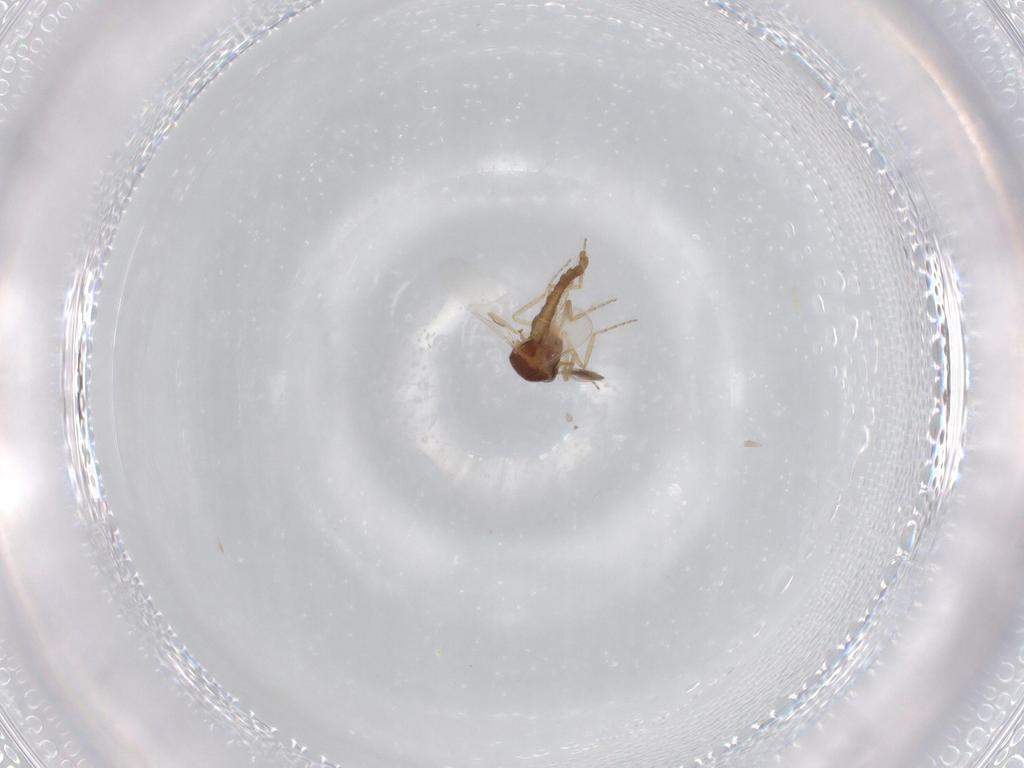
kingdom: Animalia
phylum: Arthropoda
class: Insecta
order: Diptera
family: Ceratopogonidae
